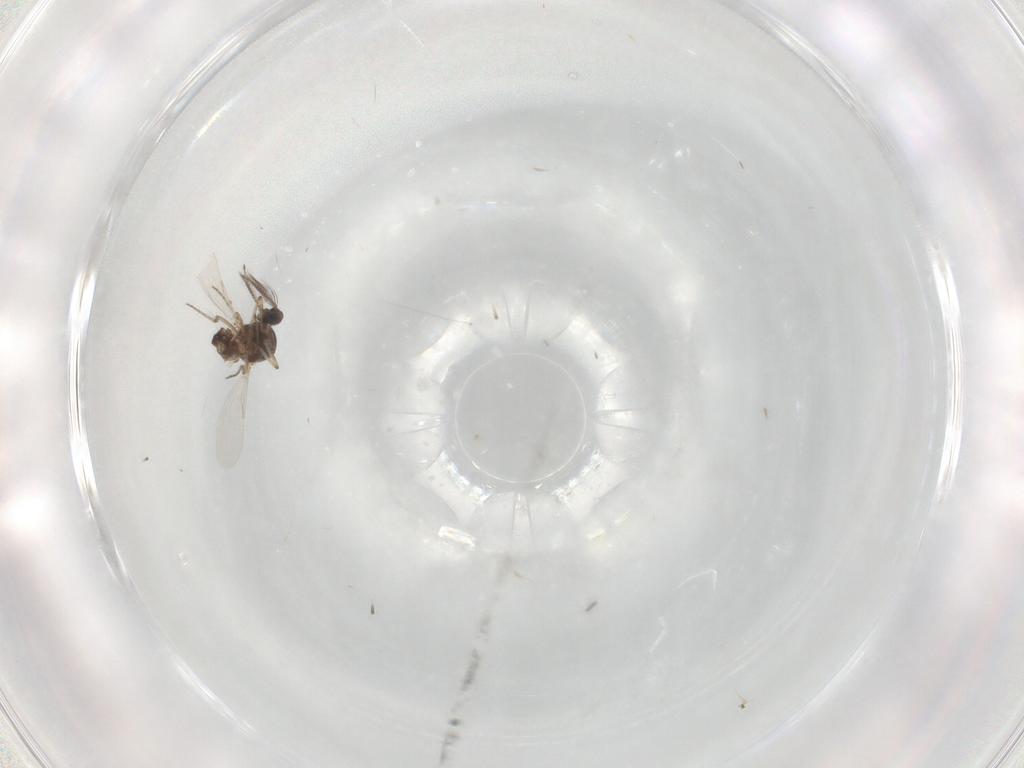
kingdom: Animalia
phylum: Arthropoda
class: Insecta
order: Diptera
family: Ceratopogonidae
